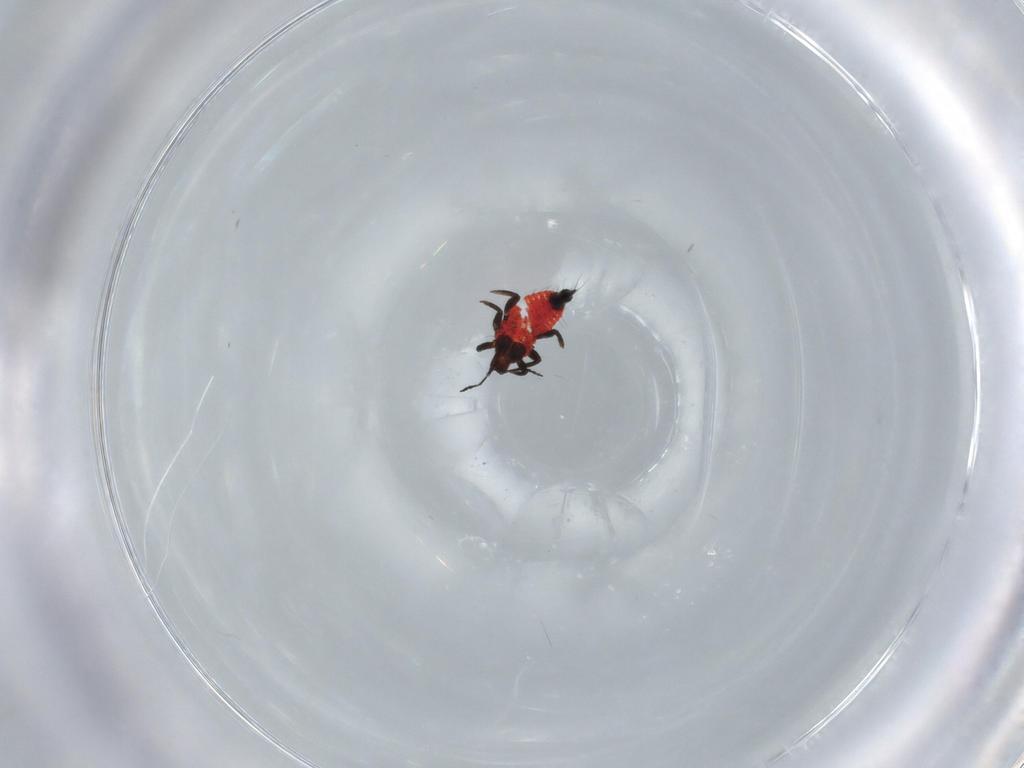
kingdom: Animalia
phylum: Arthropoda
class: Insecta
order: Thysanoptera
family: Phlaeothripidae
